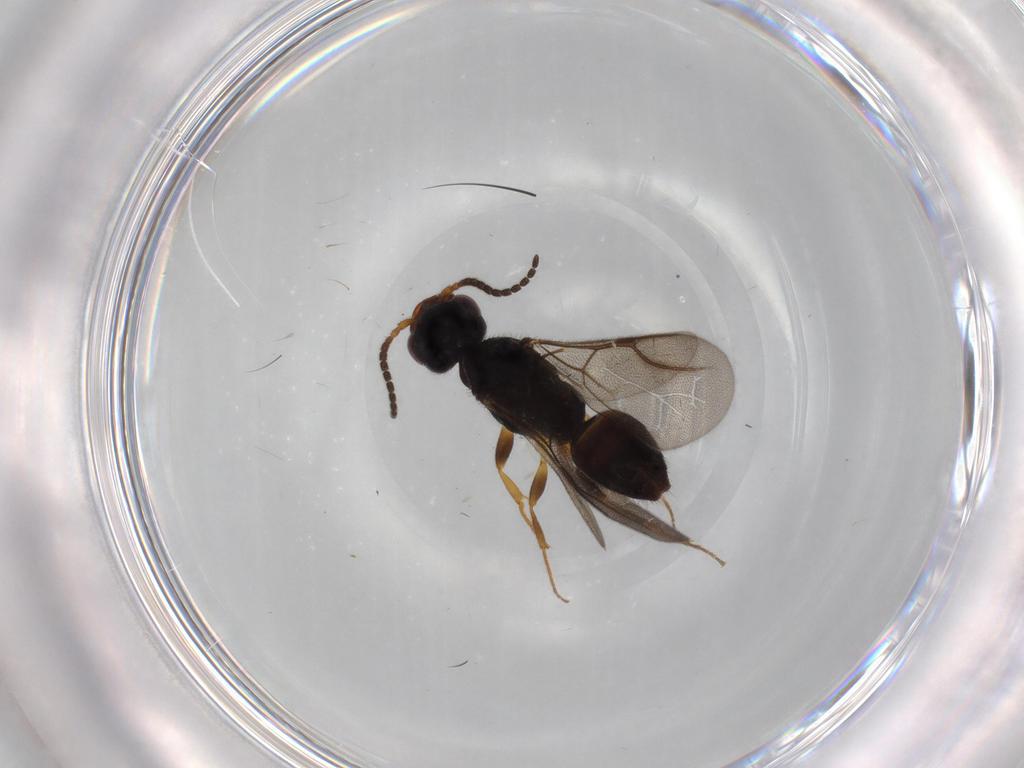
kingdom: Animalia
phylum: Arthropoda
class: Insecta
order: Hymenoptera
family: Bethylidae
